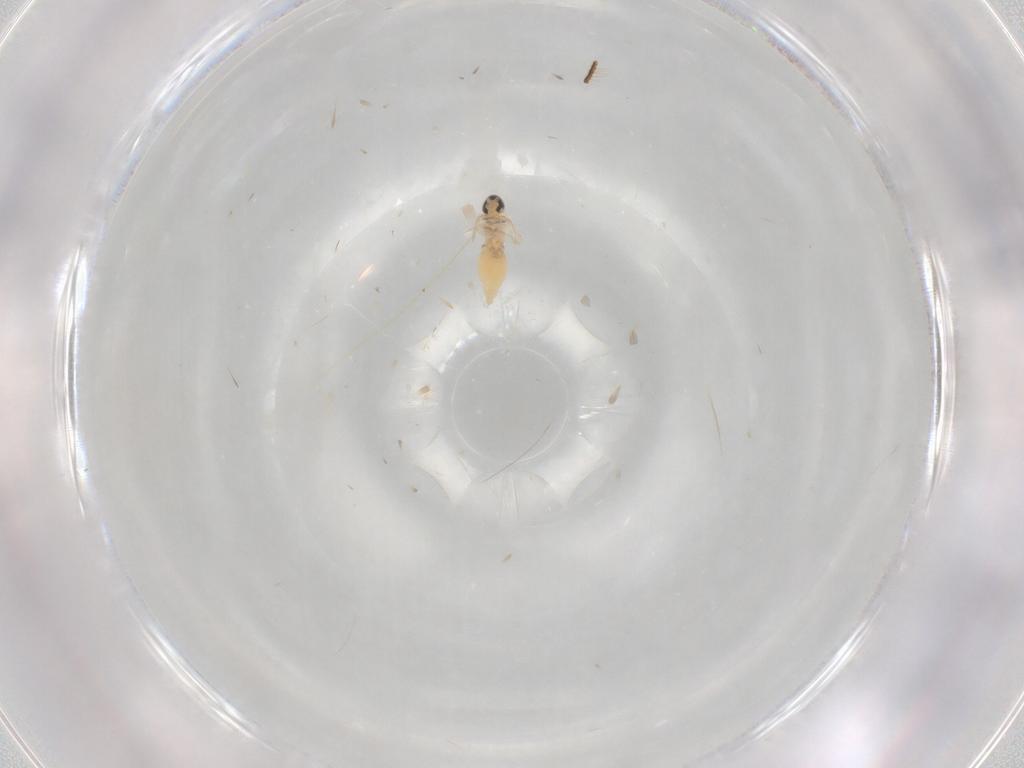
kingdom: Animalia
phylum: Arthropoda
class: Insecta
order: Diptera
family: Cecidomyiidae
